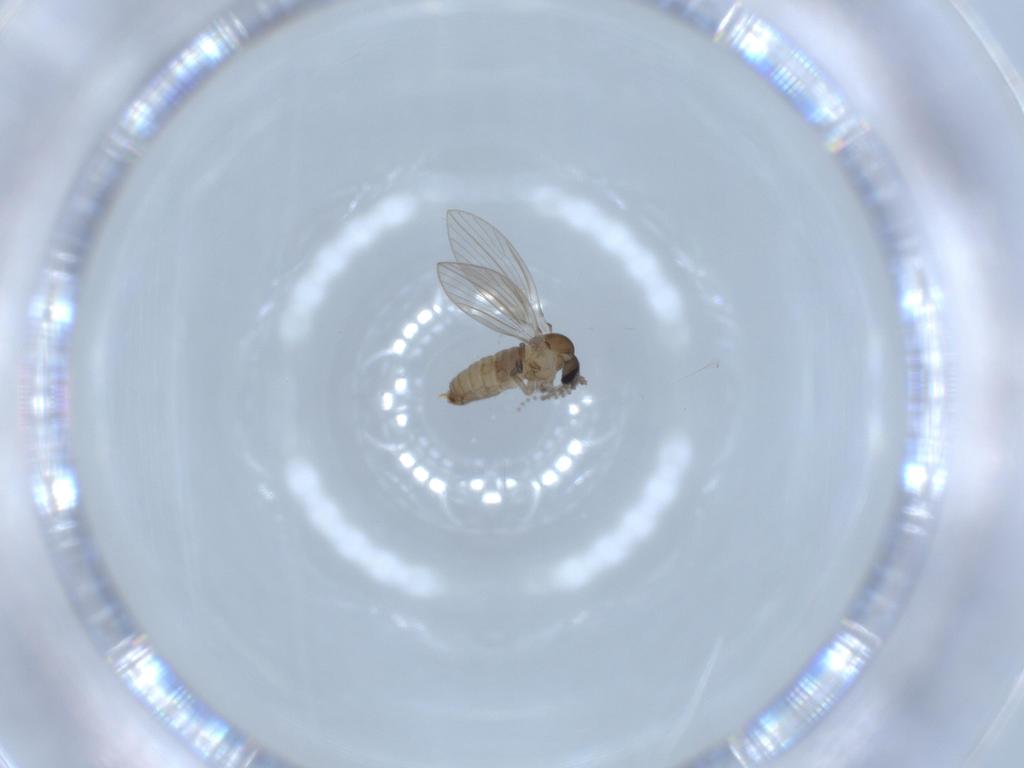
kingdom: Animalia
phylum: Arthropoda
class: Insecta
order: Diptera
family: Psychodidae
